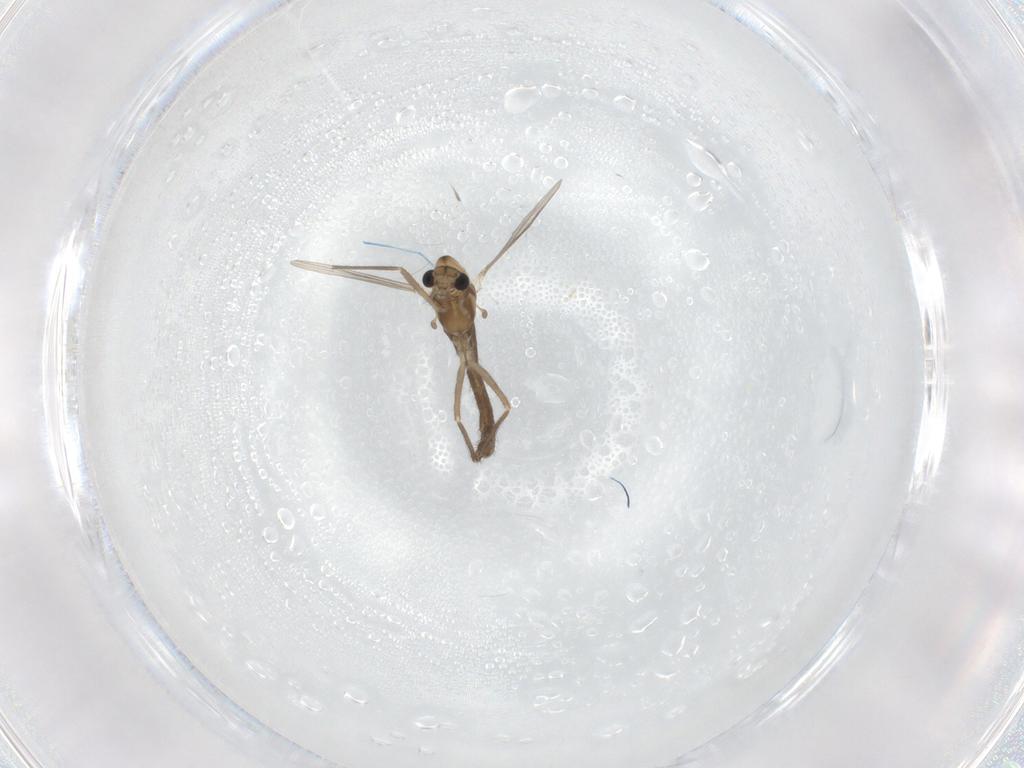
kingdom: Animalia
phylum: Arthropoda
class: Insecta
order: Diptera
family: Chironomidae
